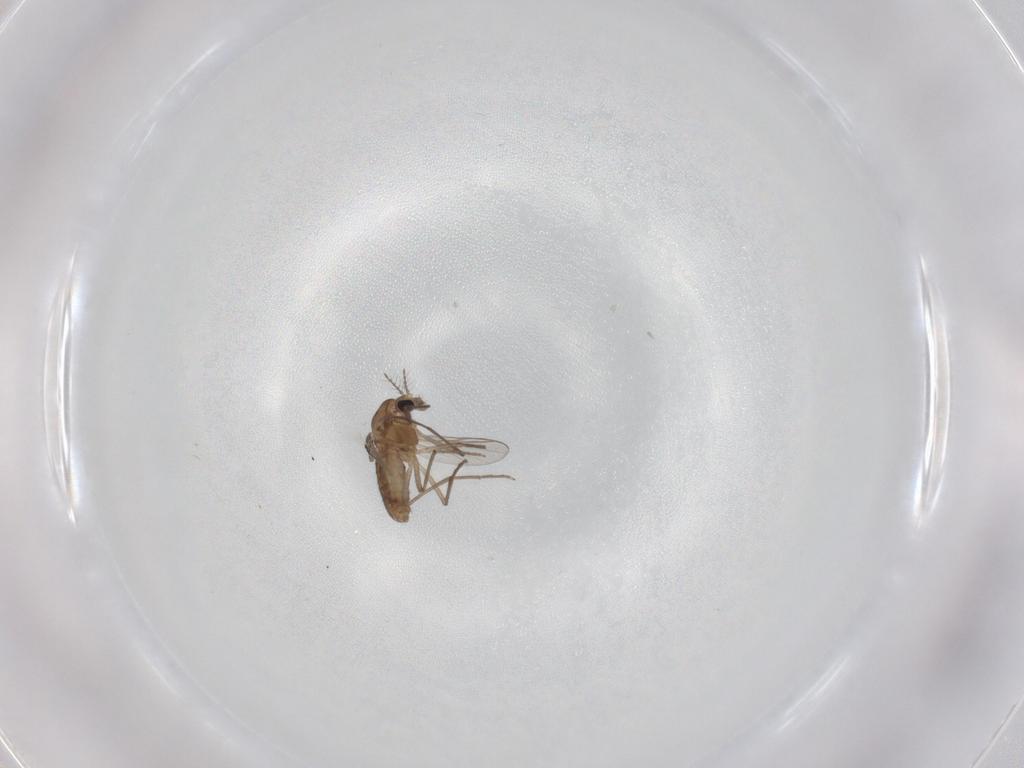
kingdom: Animalia
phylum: Arthropoda
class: Insecta
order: Diptera
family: Chironomidae
